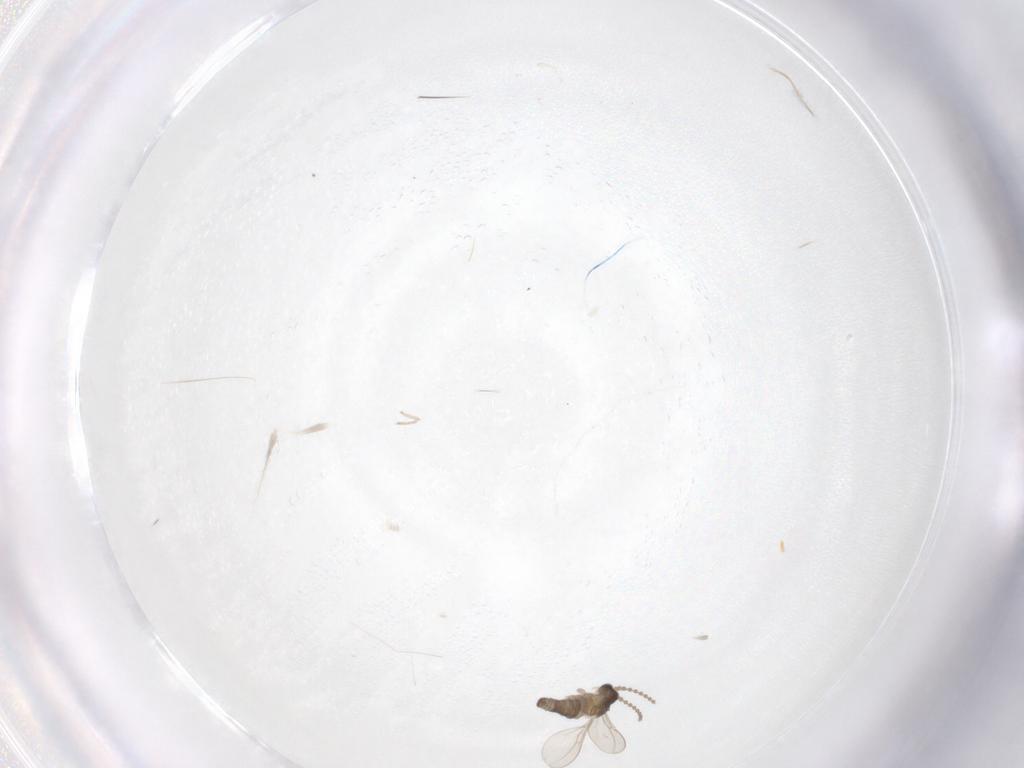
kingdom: Animalia
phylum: Arthropoda
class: Insecta
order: Diptera
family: Cecidomyiidae
